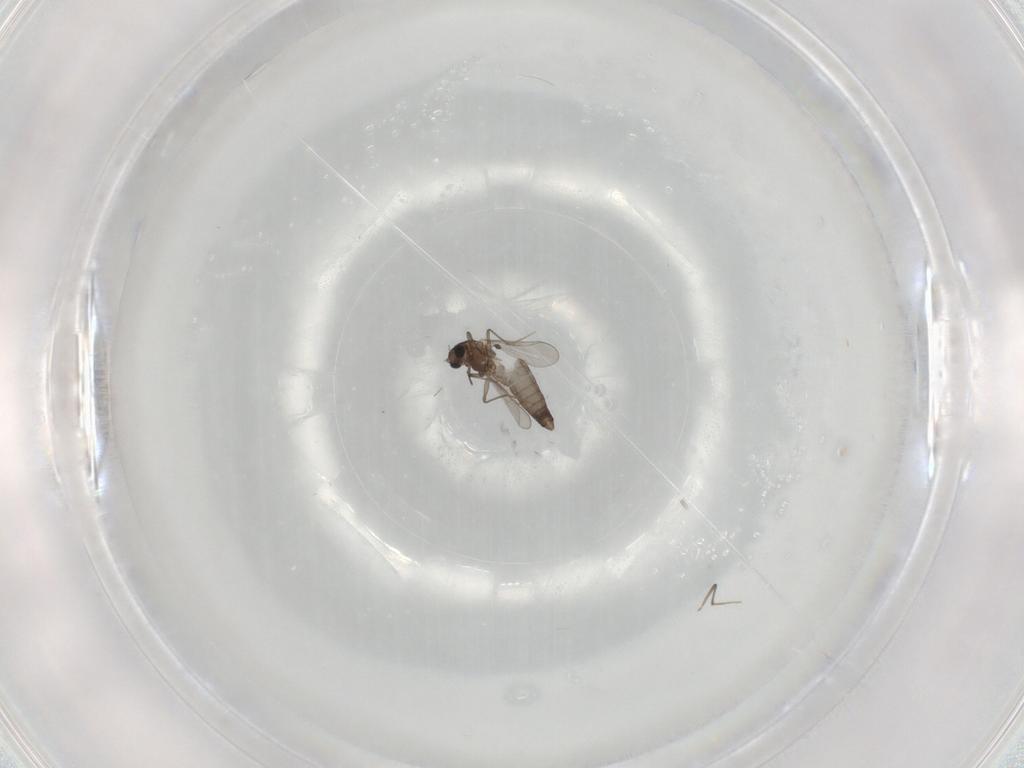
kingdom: Animalia
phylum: Arthropoda
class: Insecta
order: Diptera
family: Chironomidae
